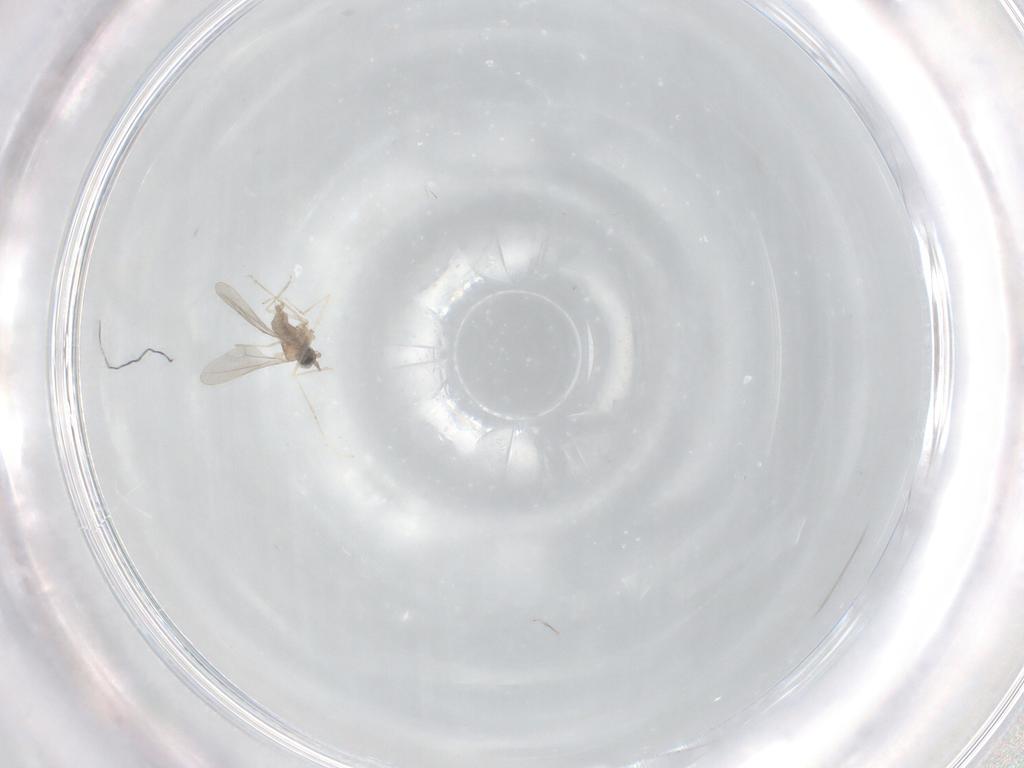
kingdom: Animalia
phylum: Arthropoda
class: Insecta
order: Diptera
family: Cecidomyiidae
